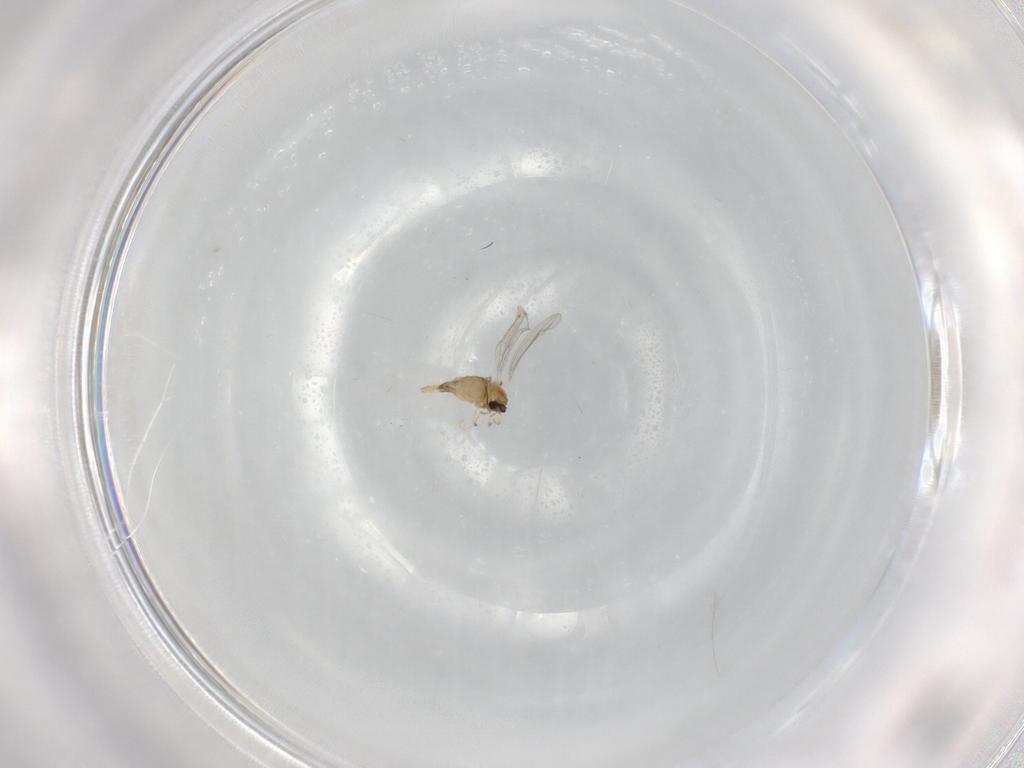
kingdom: Animalia
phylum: Arthropoda
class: Insecta
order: Diptera
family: Cecidomyiidae
